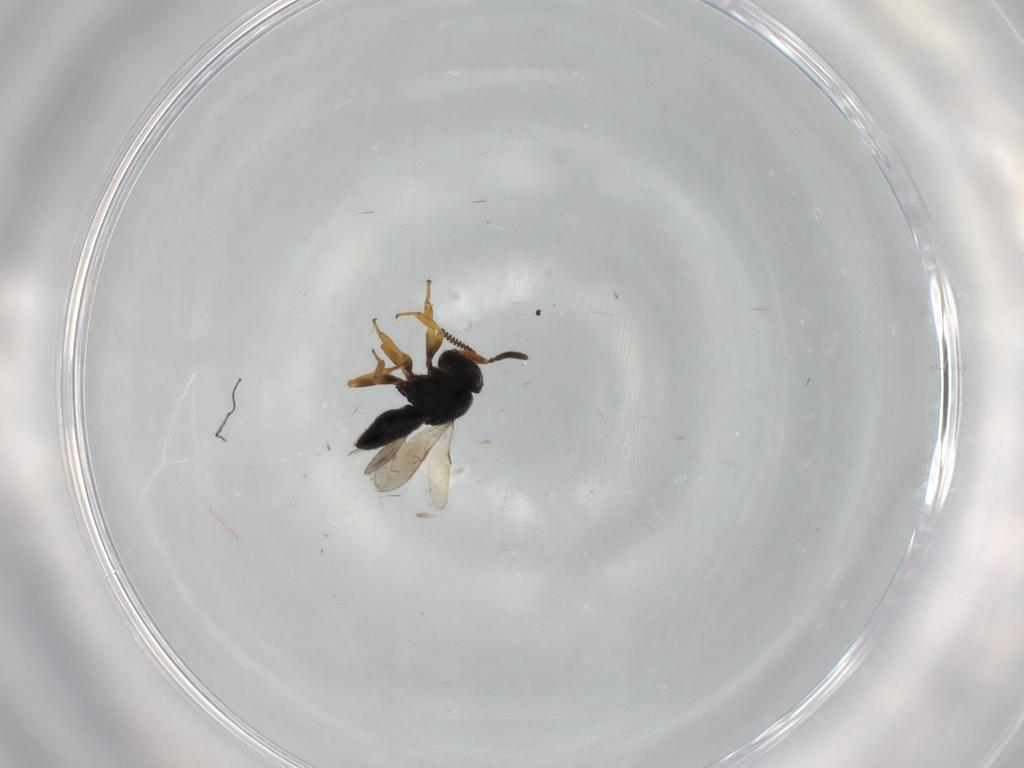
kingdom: Animalia
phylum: Arthropoda
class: Insecta
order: Hymenoptera
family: Scelionidae
